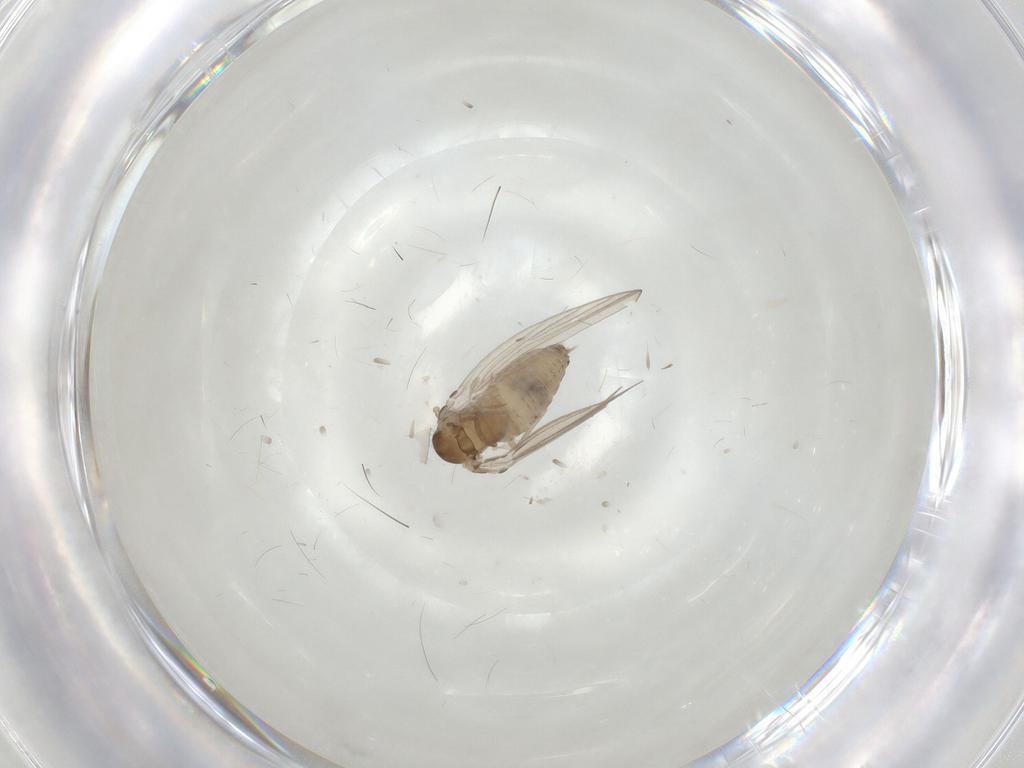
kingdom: Animalia
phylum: Arthropoda
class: Insecta
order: Diptera
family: Psychodidae
